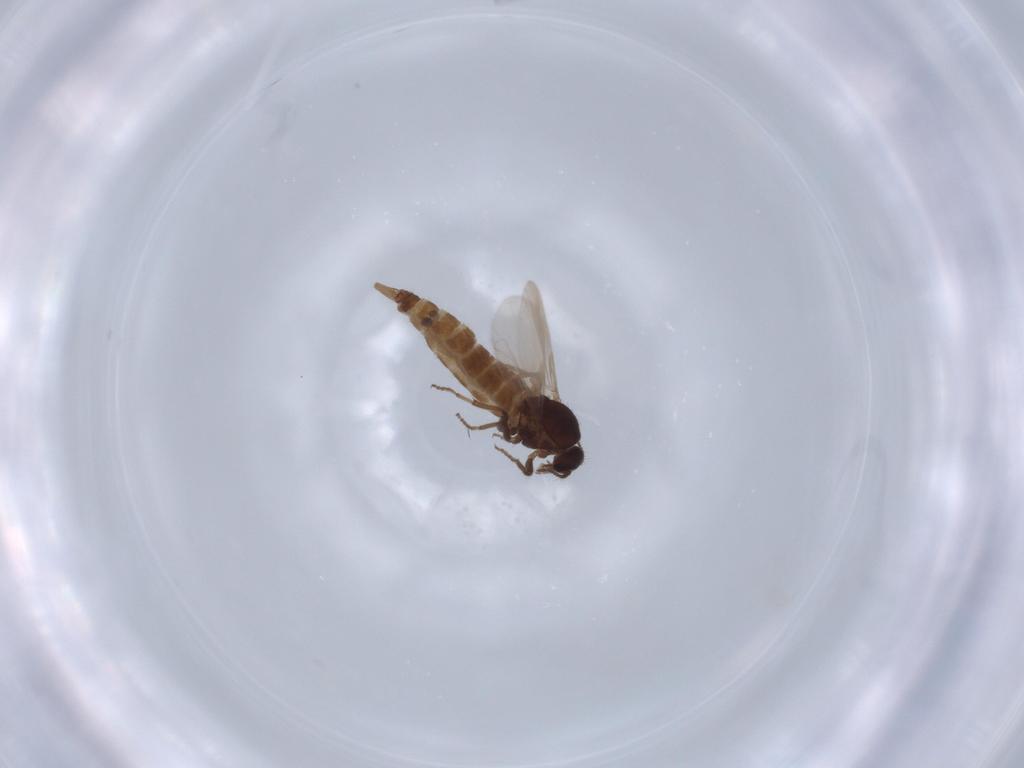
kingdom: Animalia
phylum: Arthropoda
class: Insecta
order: Diptera
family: Ceratopogonidae
